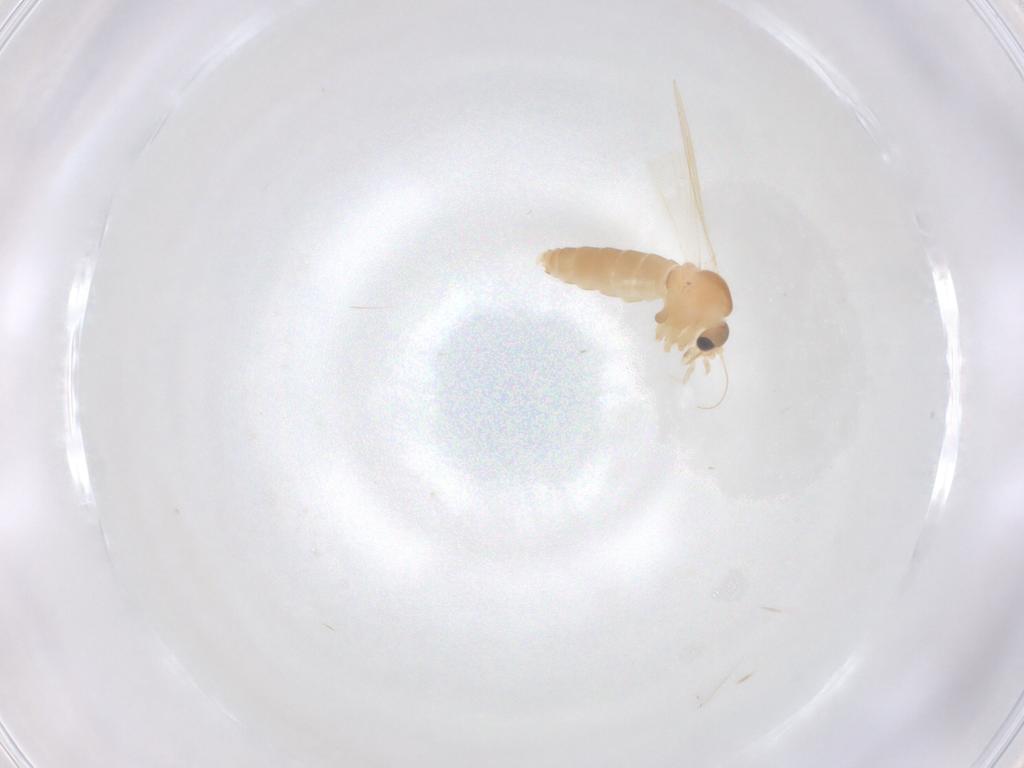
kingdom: Animalia
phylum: Arthropoda
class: Insecta
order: Diptera
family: Psychodidae
